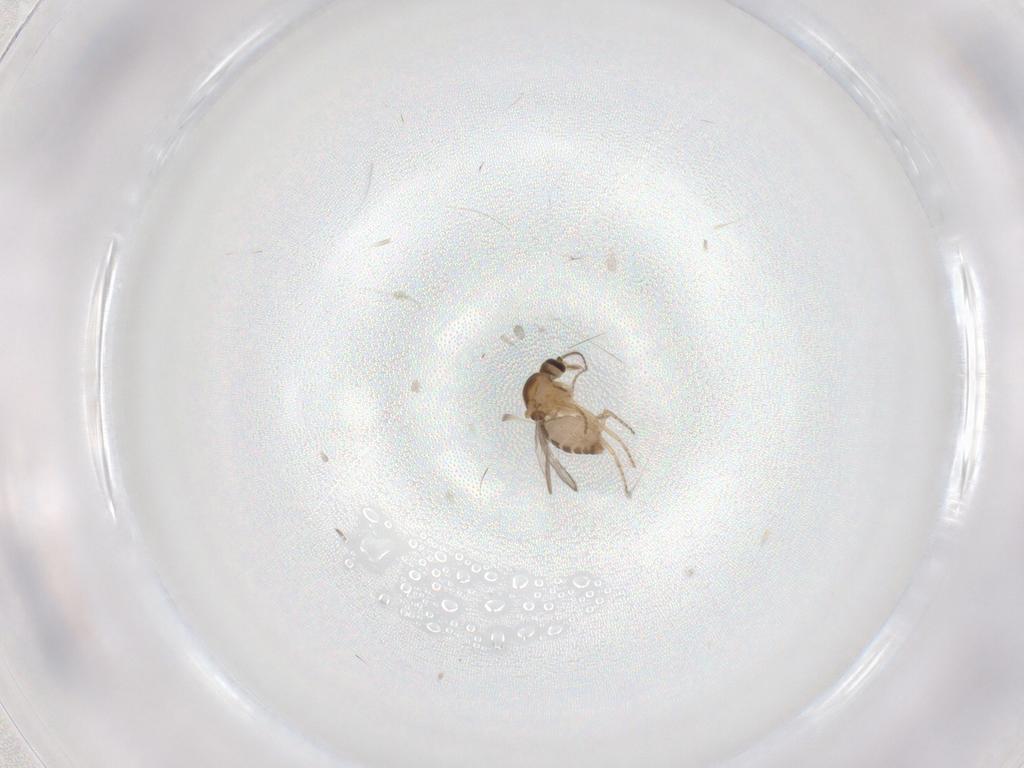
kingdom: Animalia
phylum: Arthropoda
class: Insecta
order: Diptera
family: Ceratopogonidae
